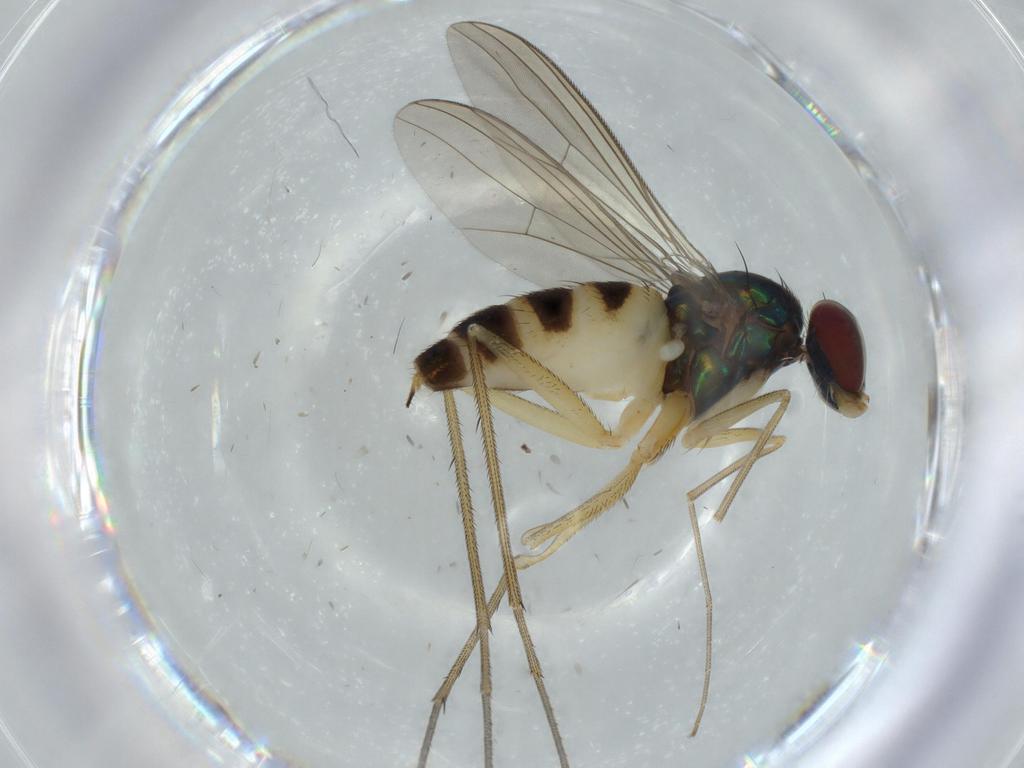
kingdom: Animalia
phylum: Arthropoda
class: Insecta
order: Diptera
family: Dolichopodidae
